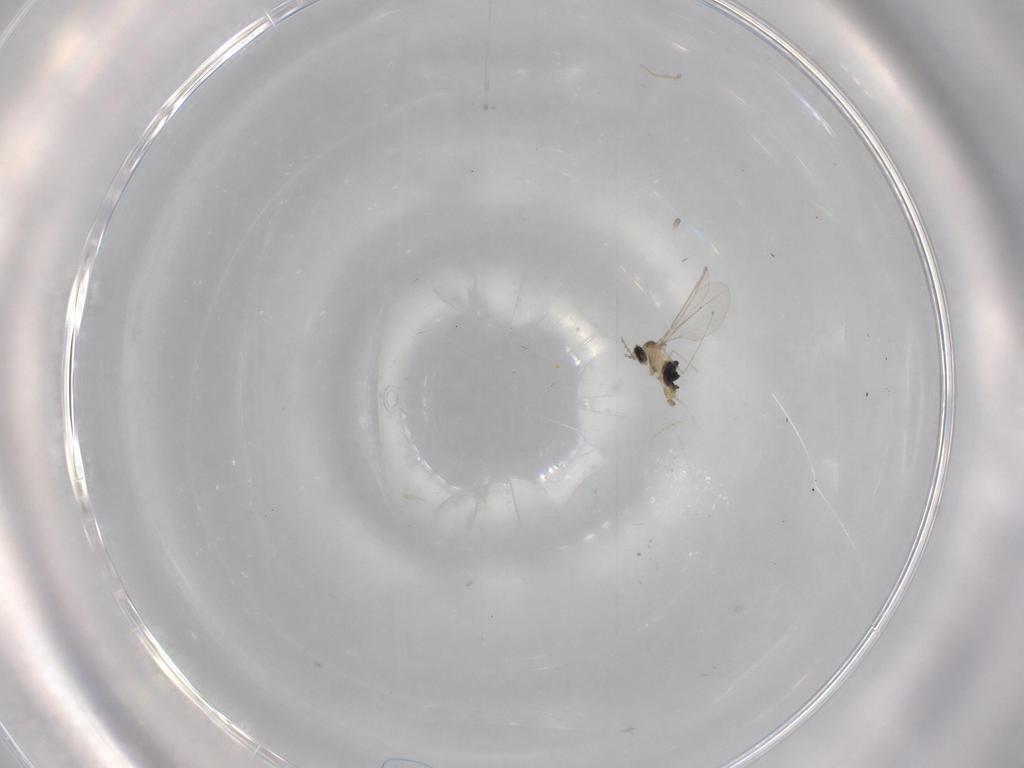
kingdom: Animalia
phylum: Arthropoda
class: Insecta
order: Diptera
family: Cecidomyiidae
